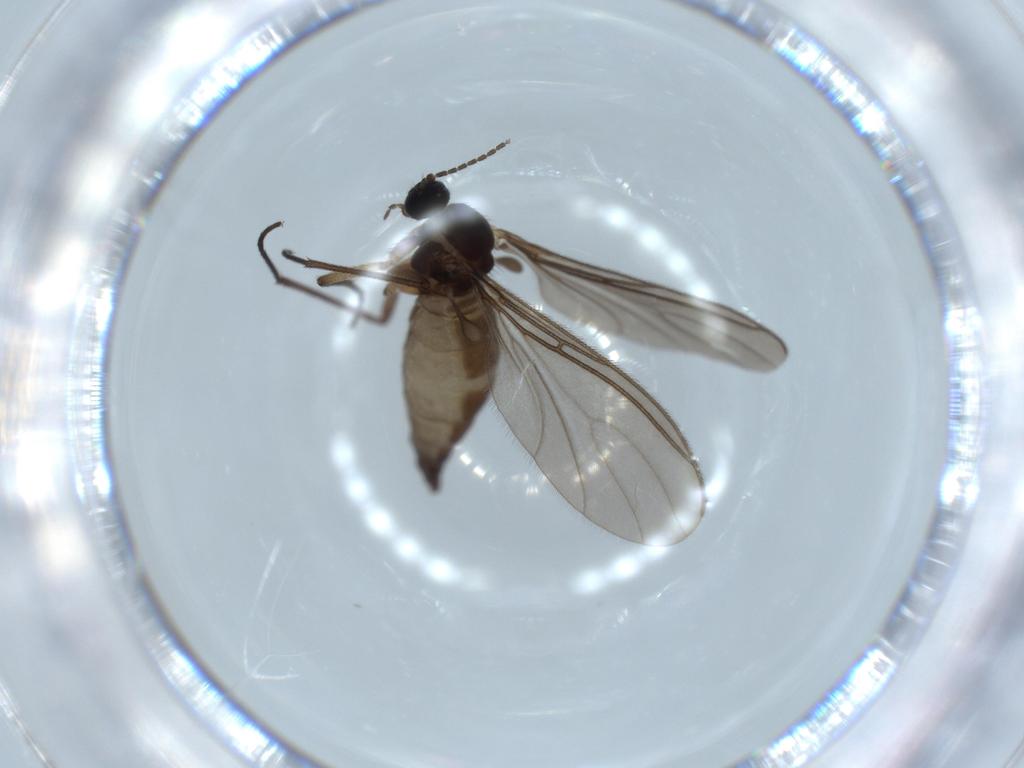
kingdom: Animalia
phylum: Arthropoda
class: Insecta
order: Diptera
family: Sciaridae
